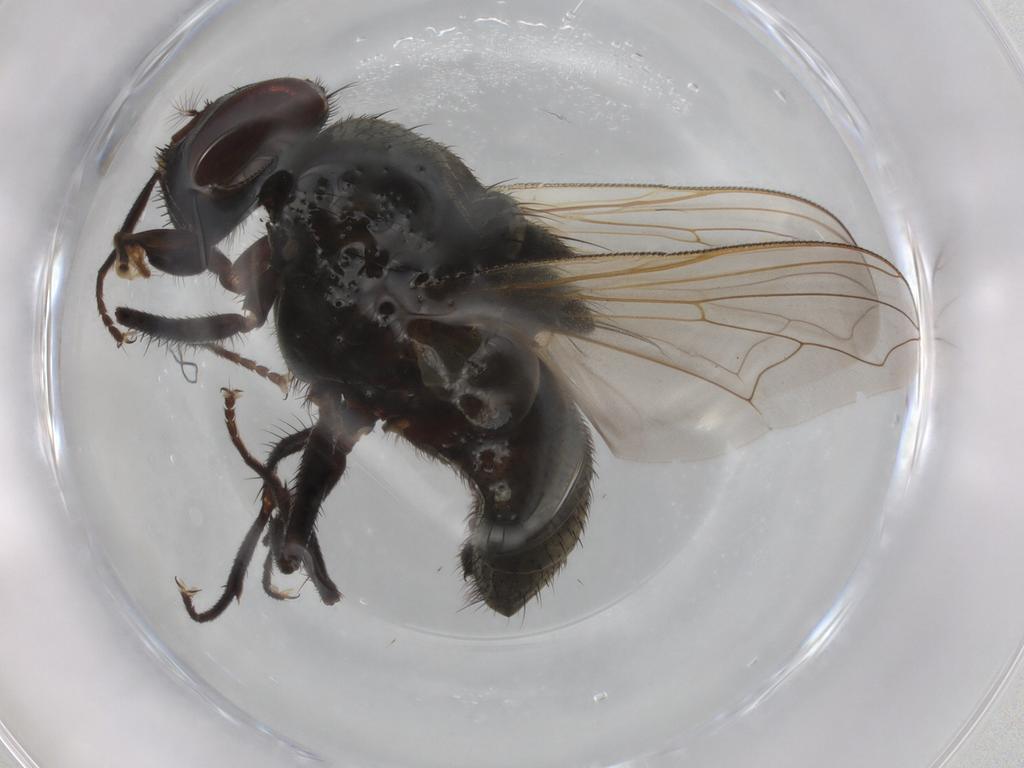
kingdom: Animalia
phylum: Arthropoda
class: Insecta
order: Diptera
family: Muscidae
